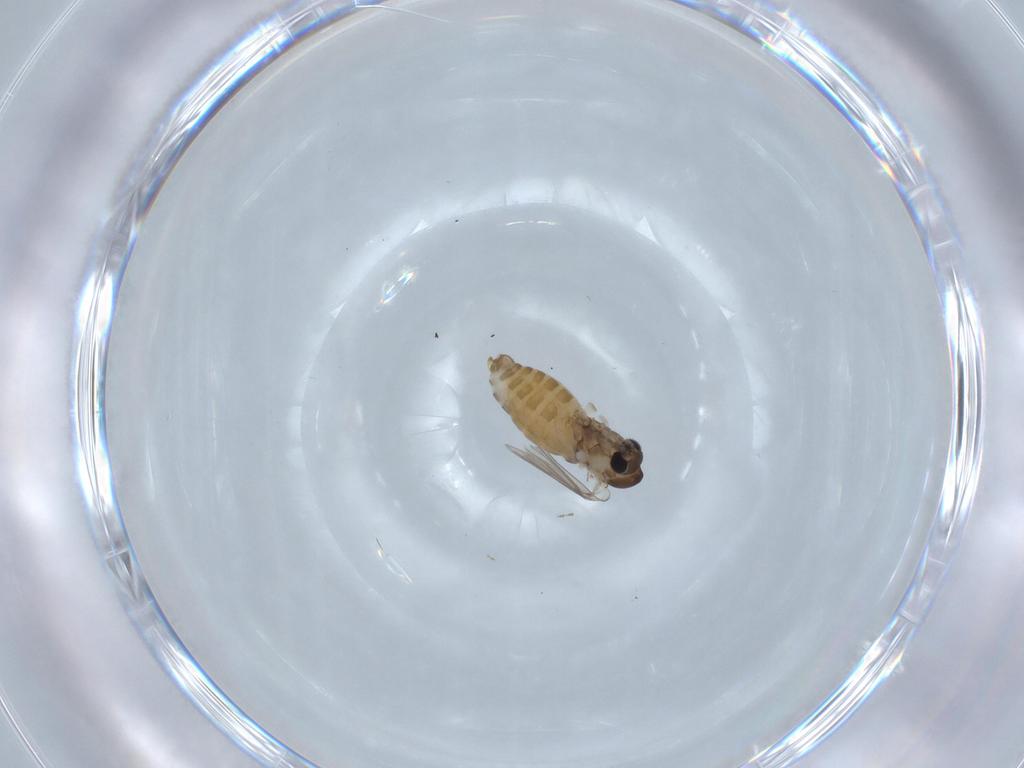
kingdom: Animalia
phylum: Arthropoda
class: Insecta
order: Diptera
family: Psychodidae
